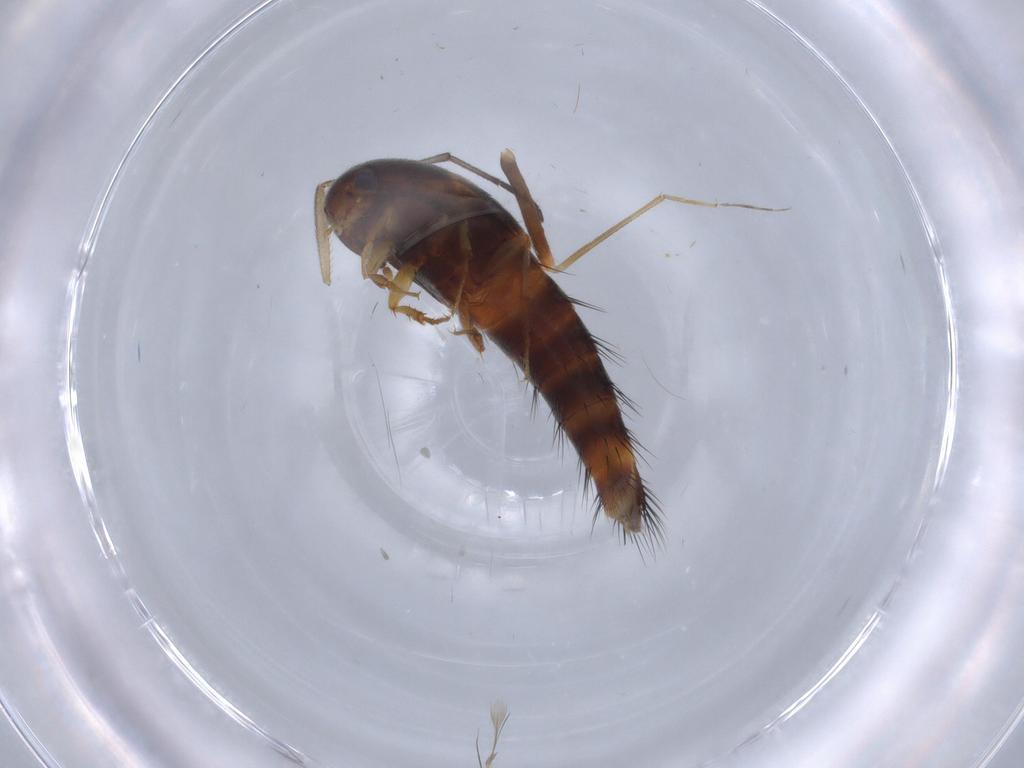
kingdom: Animalia
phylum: Arthropoda
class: Insecta
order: Coleoptera
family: Staphylinidae
